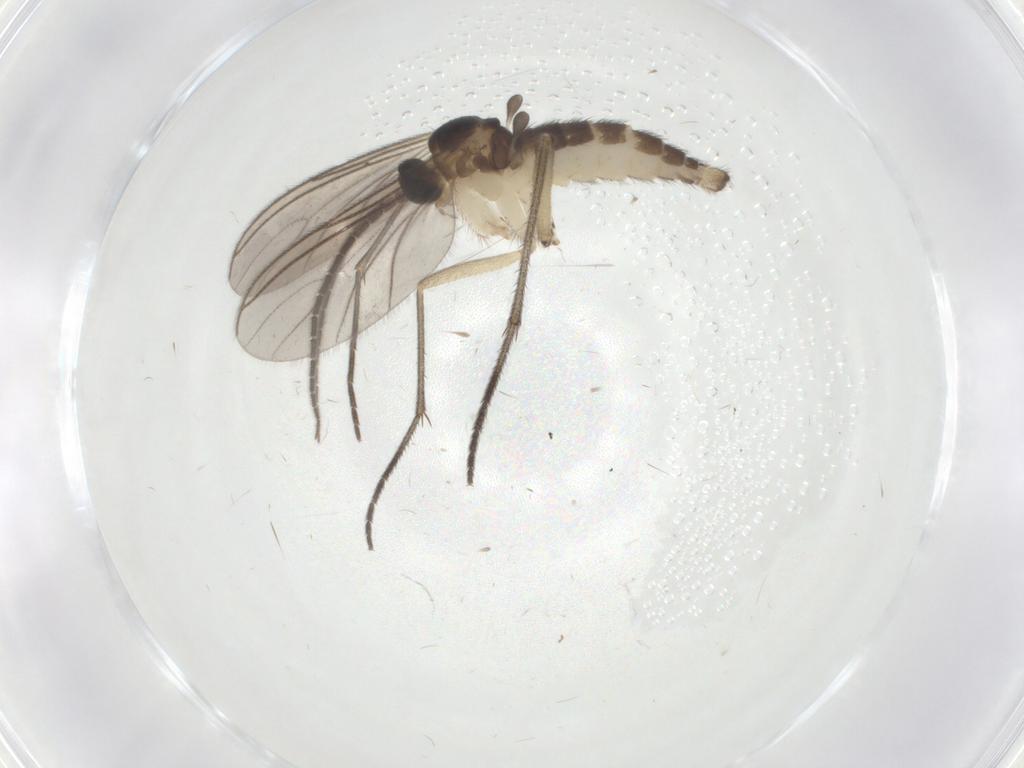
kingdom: Animalia
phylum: Arthropoda
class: Insecta
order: Diptera
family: Sciaridae
